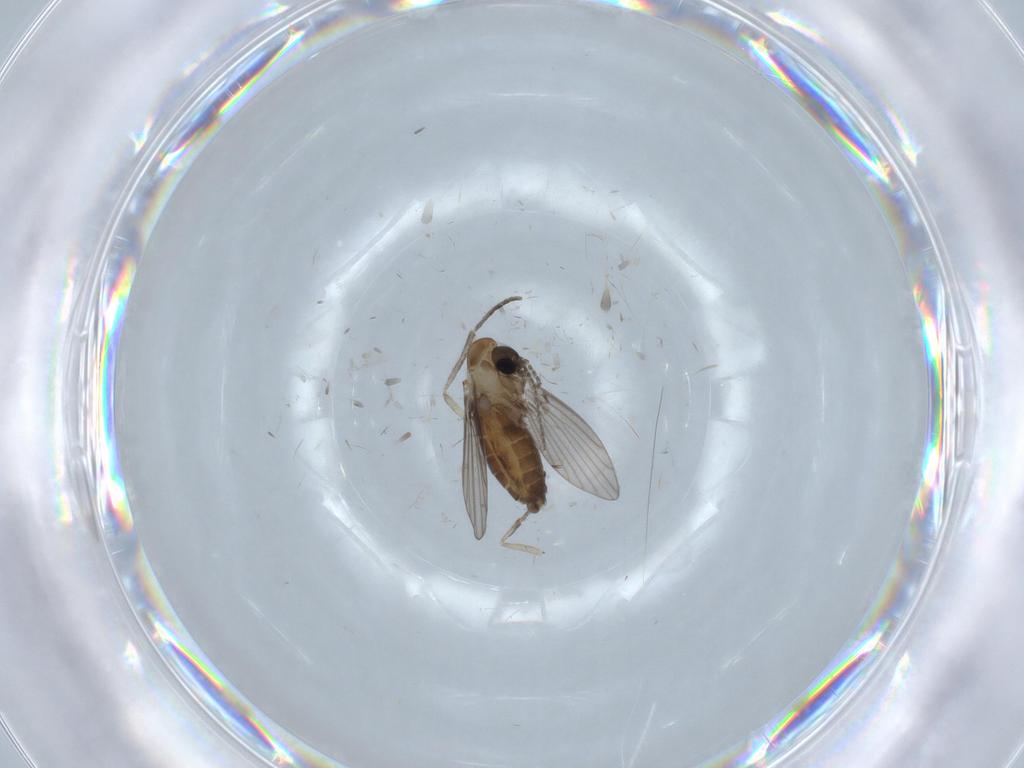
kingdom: Animalia
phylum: Arthropoda
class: Insecta
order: Diptera
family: Psychodidae
